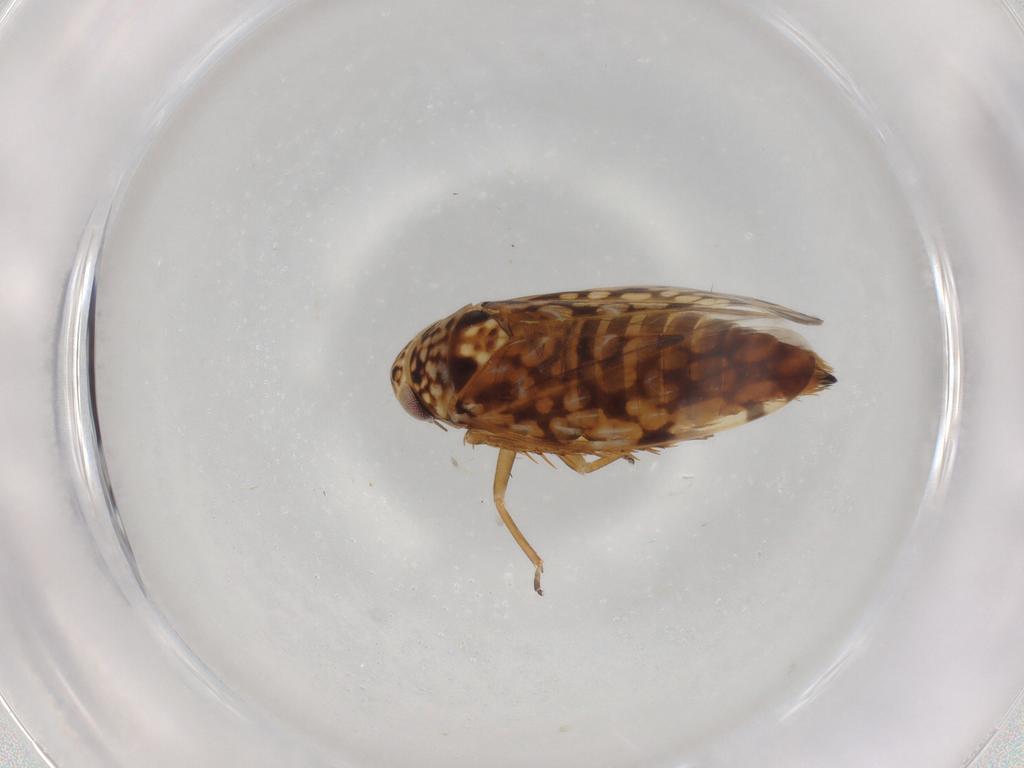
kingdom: Animalia
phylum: Arthropoda
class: Insecta
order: Hemiptera
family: Cicadellidae
